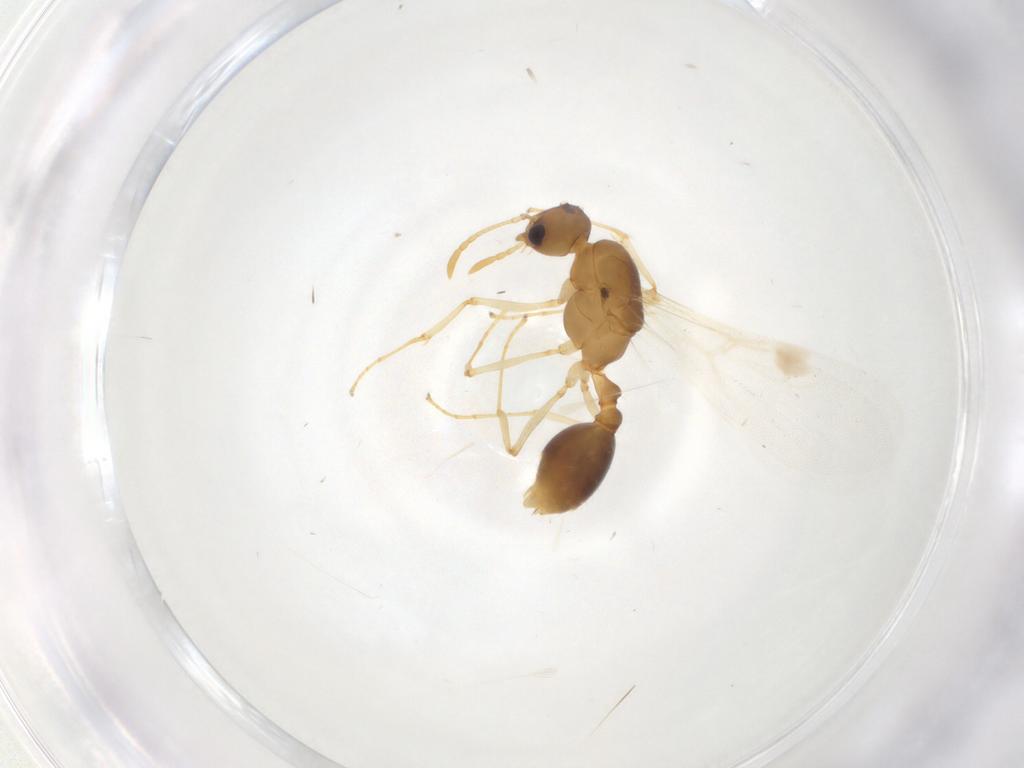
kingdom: Animalia
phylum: Arthropoda
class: Insecta
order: Hymenoptera
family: Formicidae
